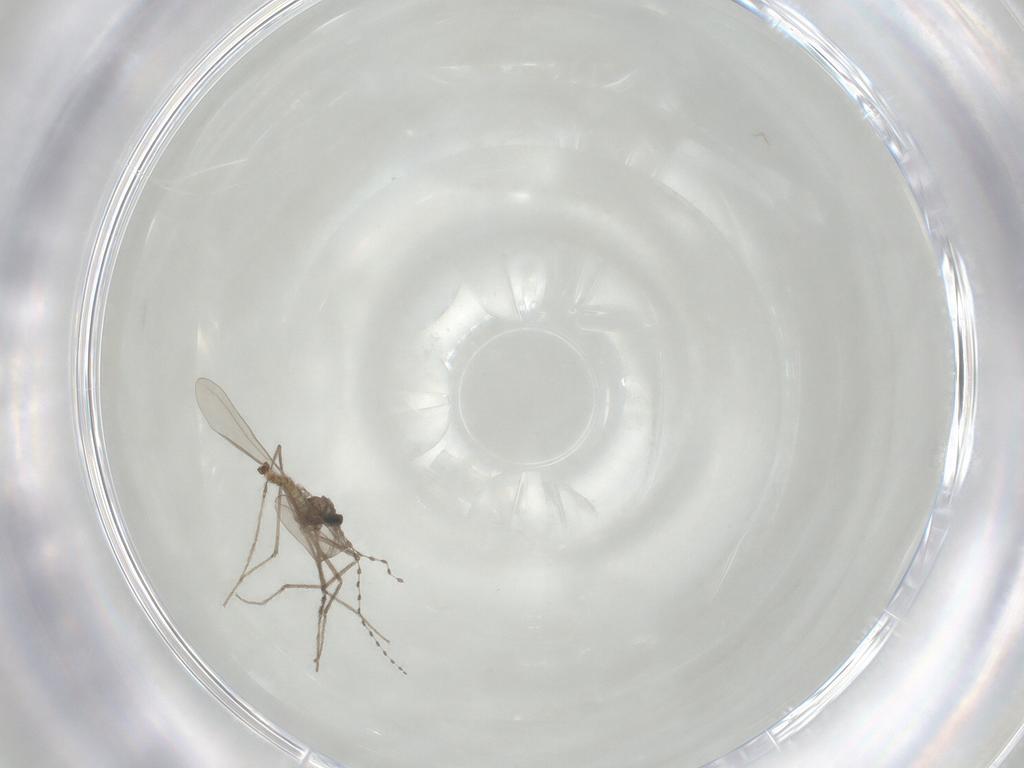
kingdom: Animalia
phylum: Arthropoda
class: Insecta
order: Diptera
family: Cecidomyiidae
